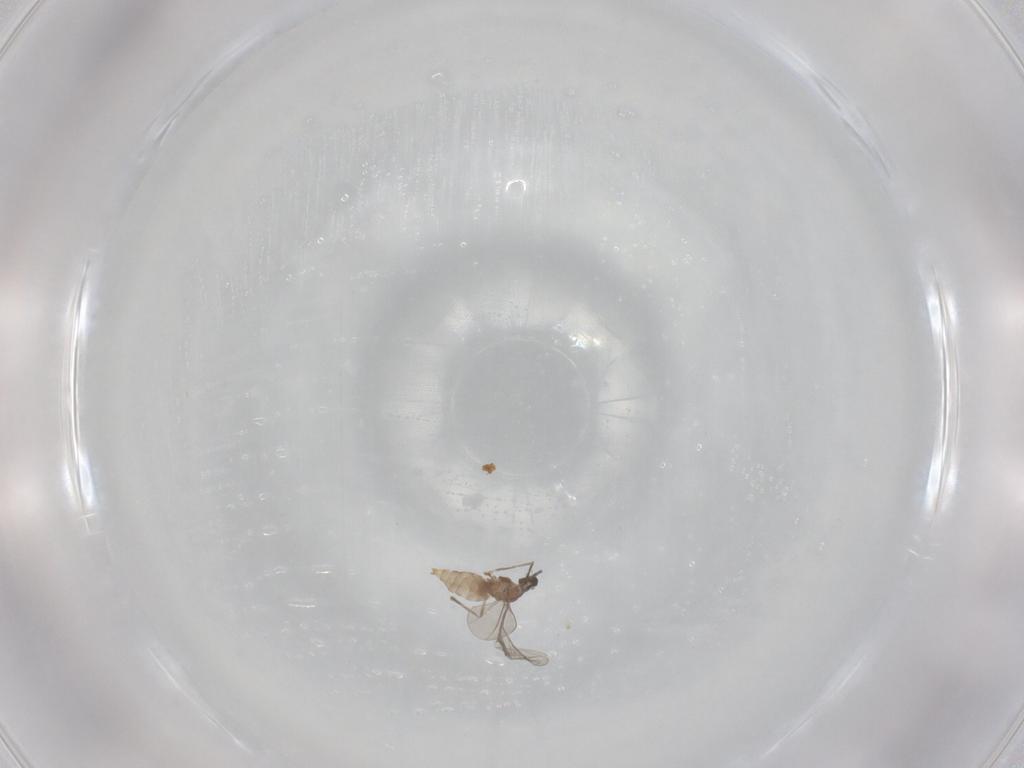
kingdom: Animalia
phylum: Arthropoda
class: Insecta
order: Diptera
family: Cecidomyiidae
